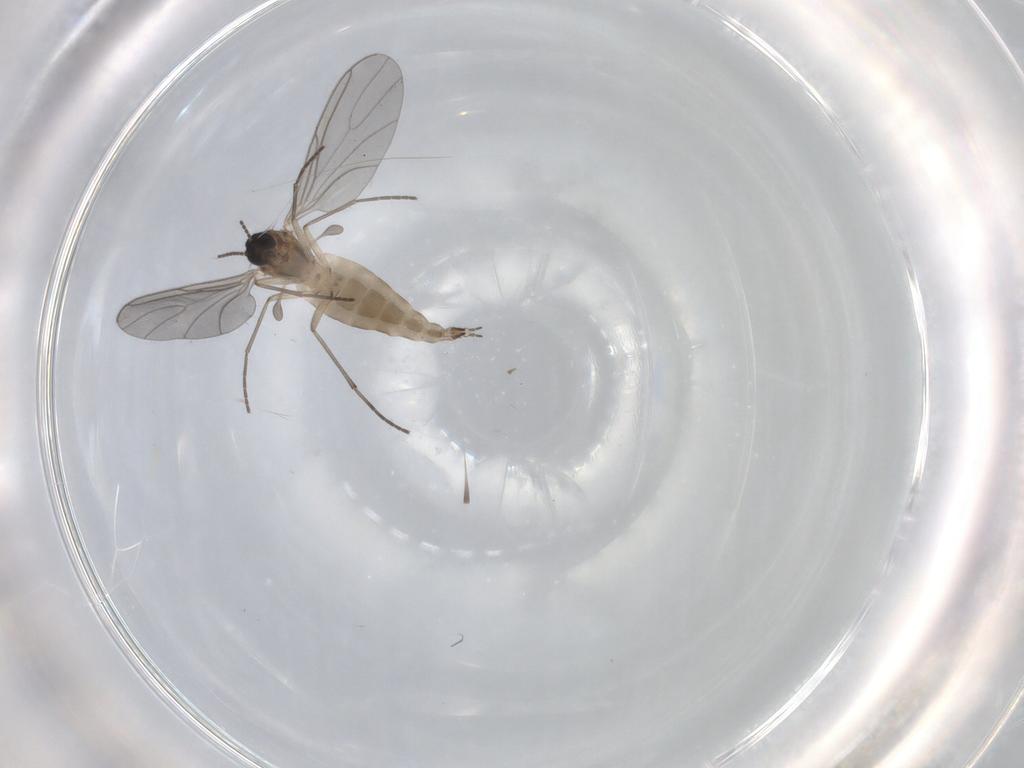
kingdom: Animalia
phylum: Arthropoda
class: Insecta
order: Diptera
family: Sciaridae
